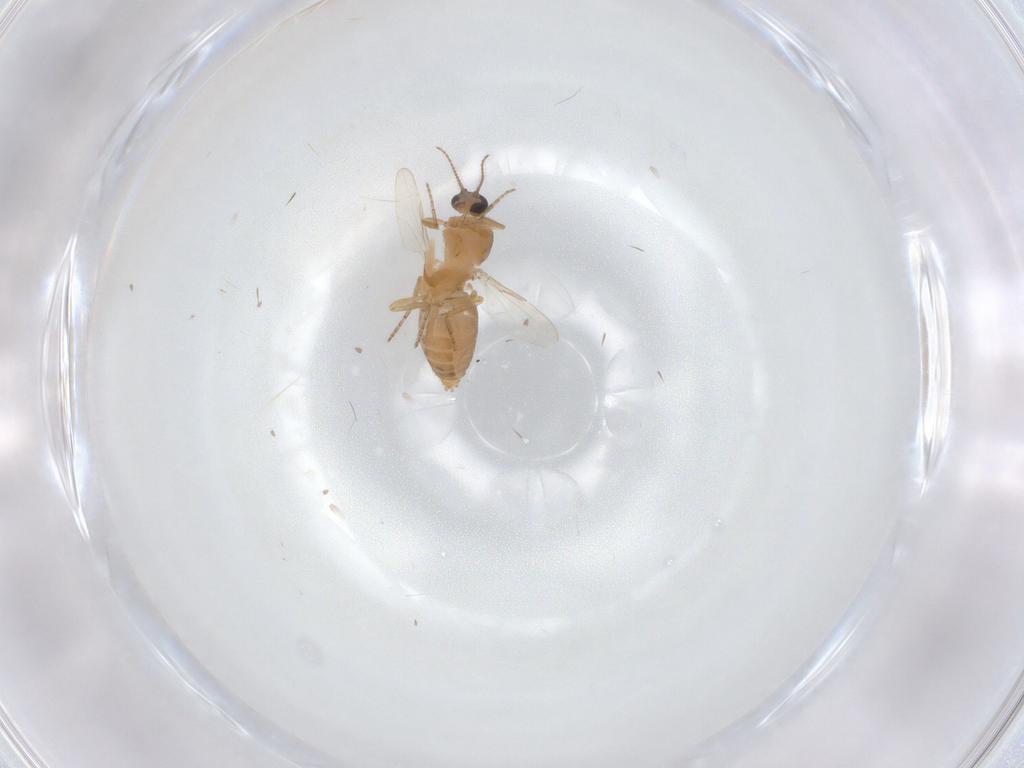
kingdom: Animalia
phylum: Arthropoda
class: Insecta
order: Diptera
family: Ceratopogonidae
